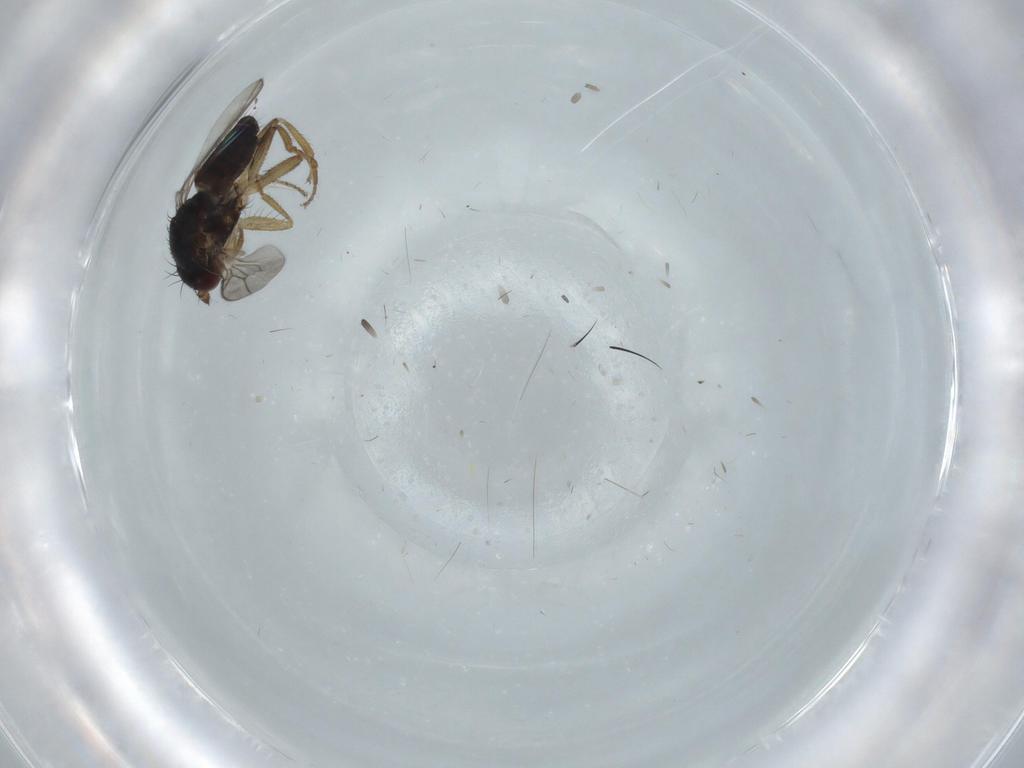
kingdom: Animalia
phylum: Arthropoda
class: Insecta
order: Diptera
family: Sphaeroceridae
